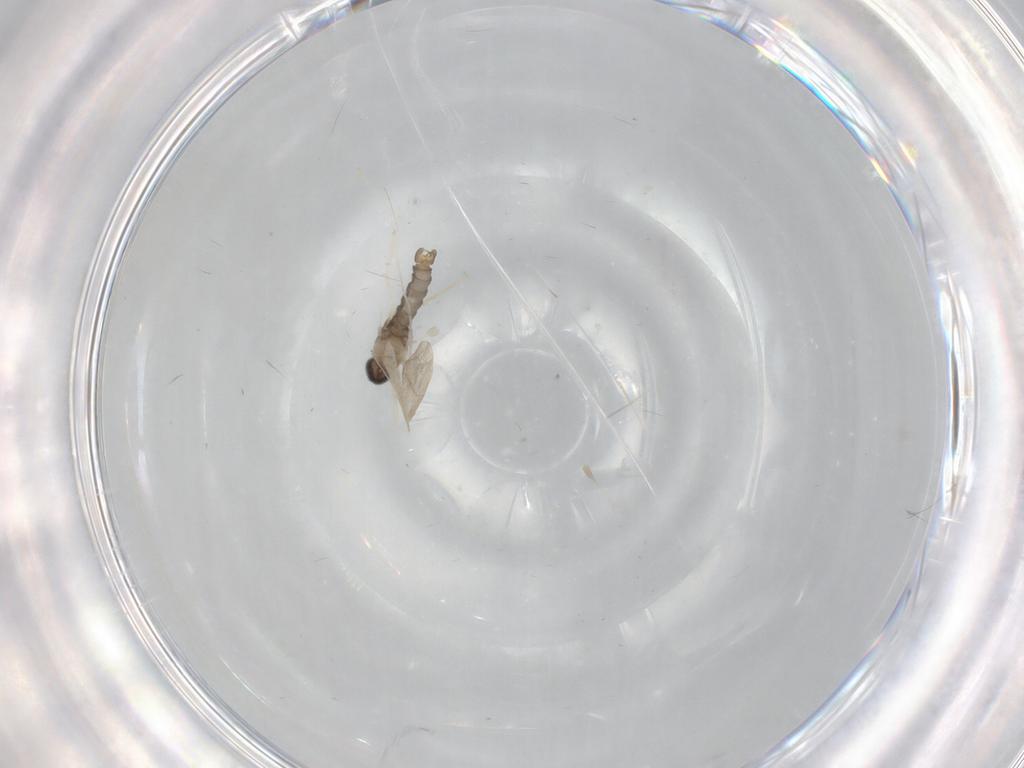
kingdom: Animalia
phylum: Arthropoda
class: Insecta
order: Diptera
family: Cecidomyiidae
